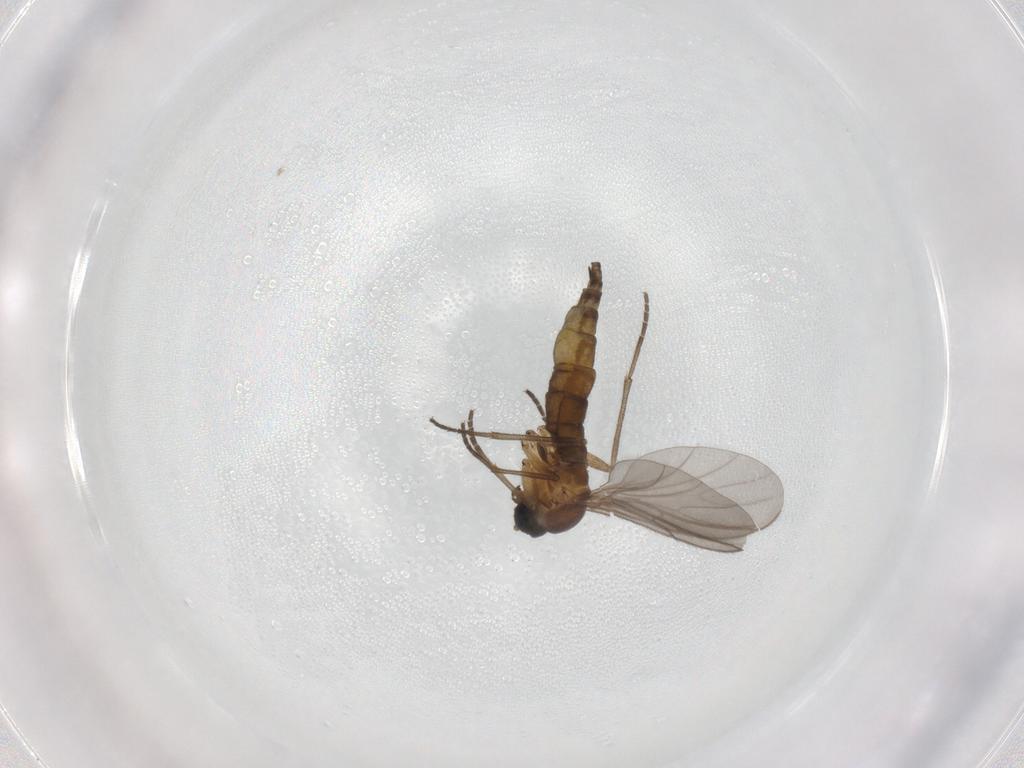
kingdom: Animalia
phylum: Arthropoda
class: Insecta
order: Diptera
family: Sciaridae
